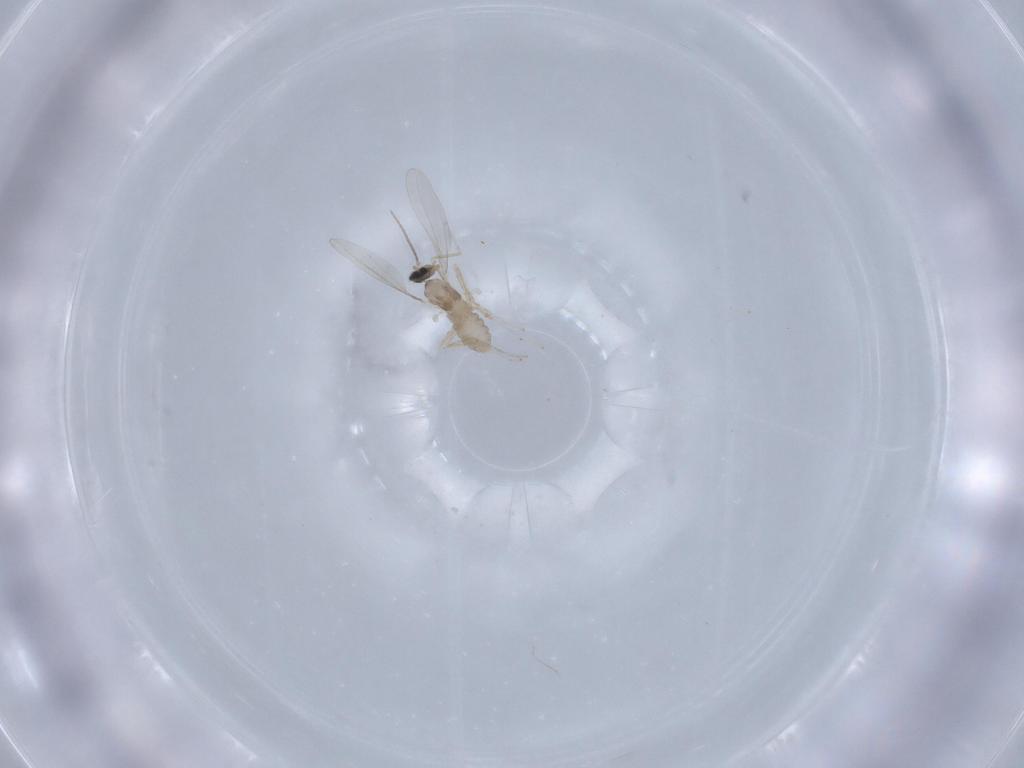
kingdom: Animalia
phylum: Arthropoda
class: Insecta
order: Diptera
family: Cecidomyiidae
